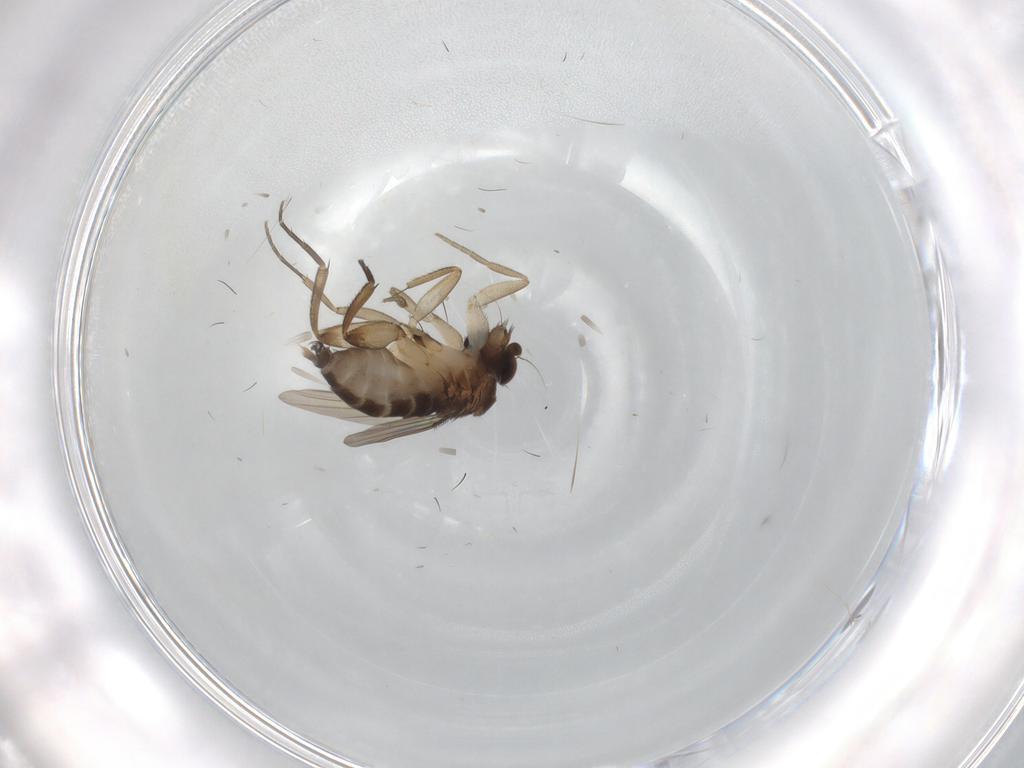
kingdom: Animalia
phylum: Arthropoda
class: Insecta
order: Diptera
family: Phoridae
